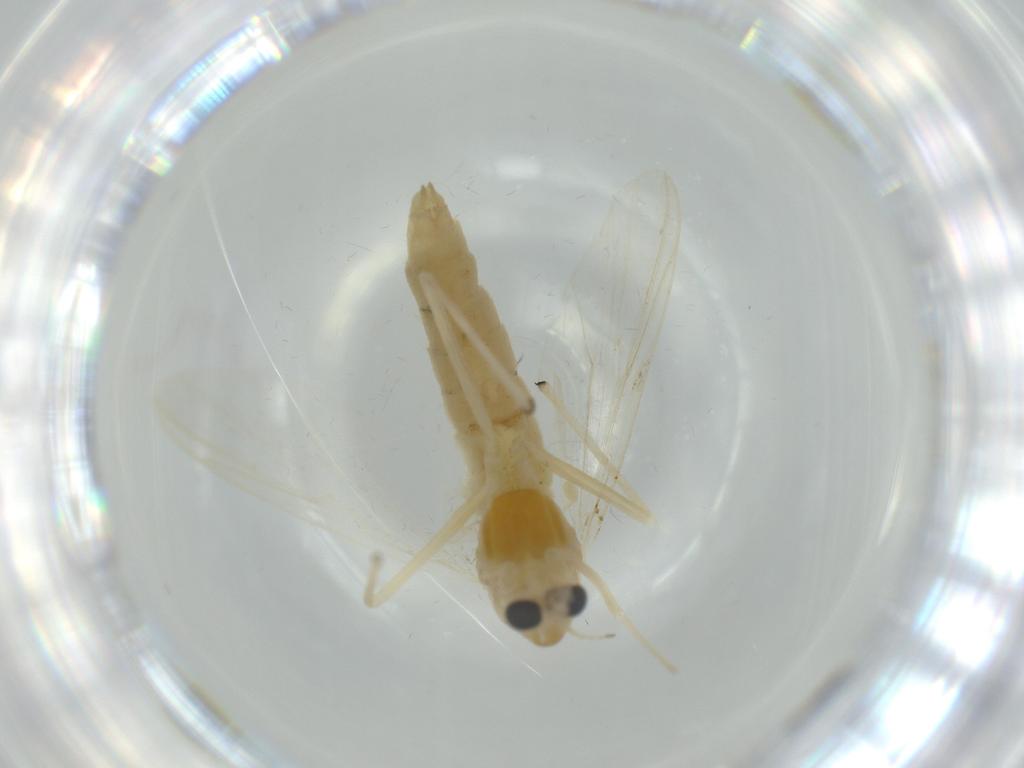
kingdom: Animalia
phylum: Arthropoda
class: Insecta
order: Diptera
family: Chironomidae
